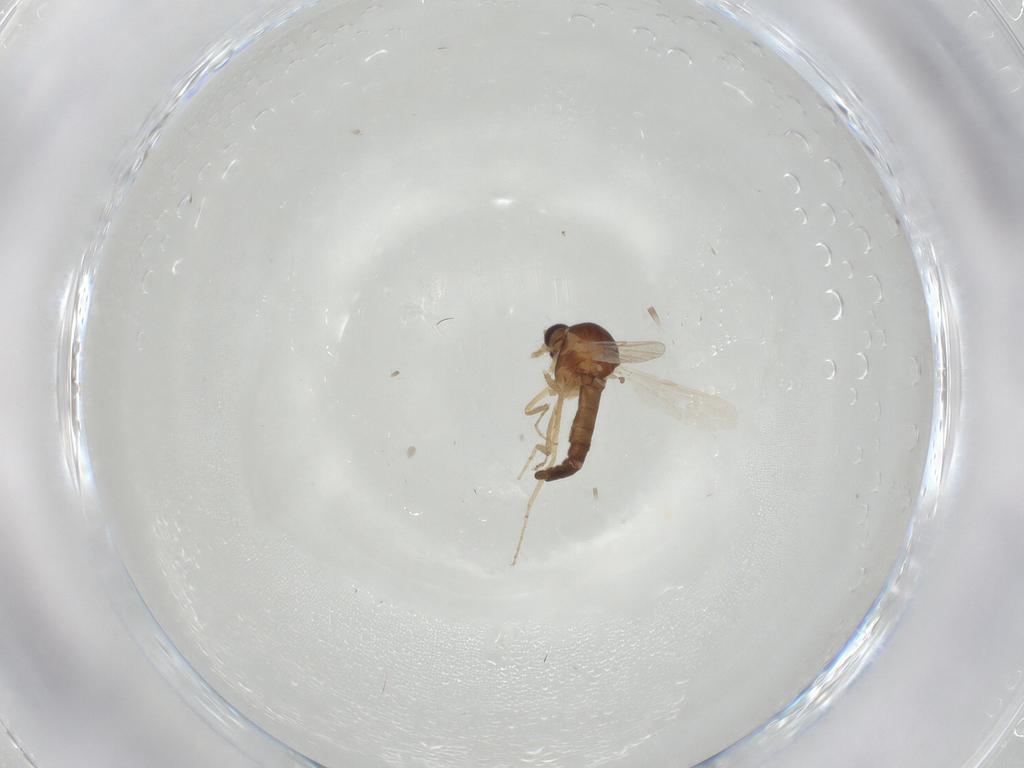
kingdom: Animalia
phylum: Arthropoda
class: Insecta
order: Diptera
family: Ceratopogonidae
